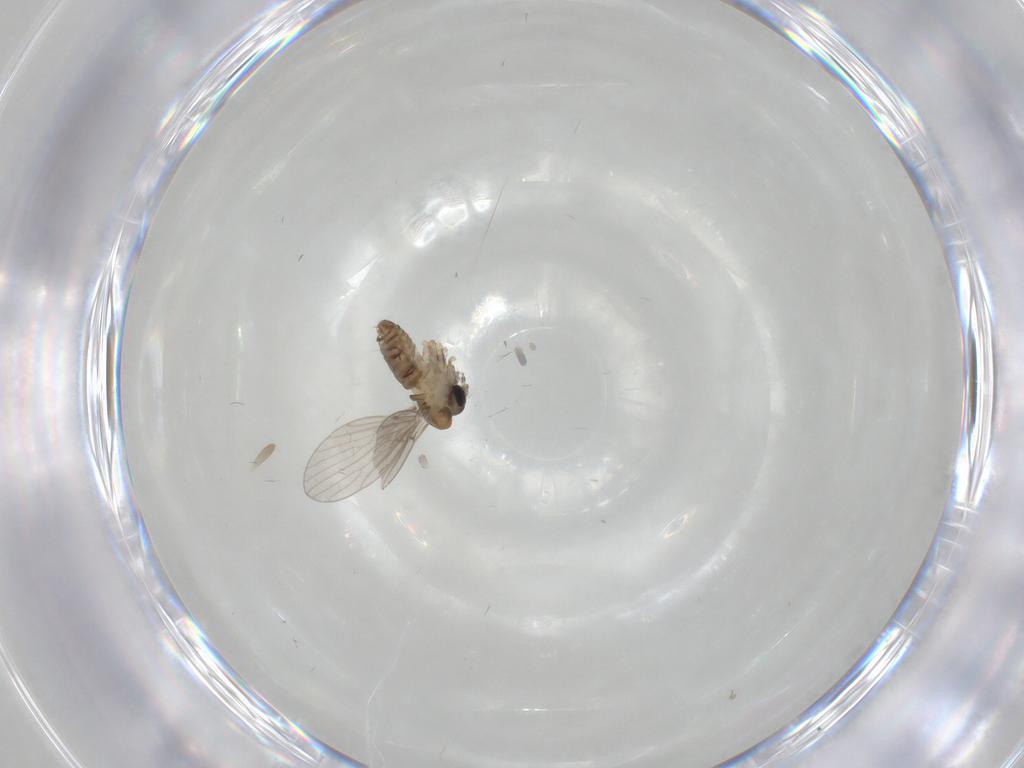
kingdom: Animalia
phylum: Arthropoda
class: Insecta
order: Diptera
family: Psychodidae
